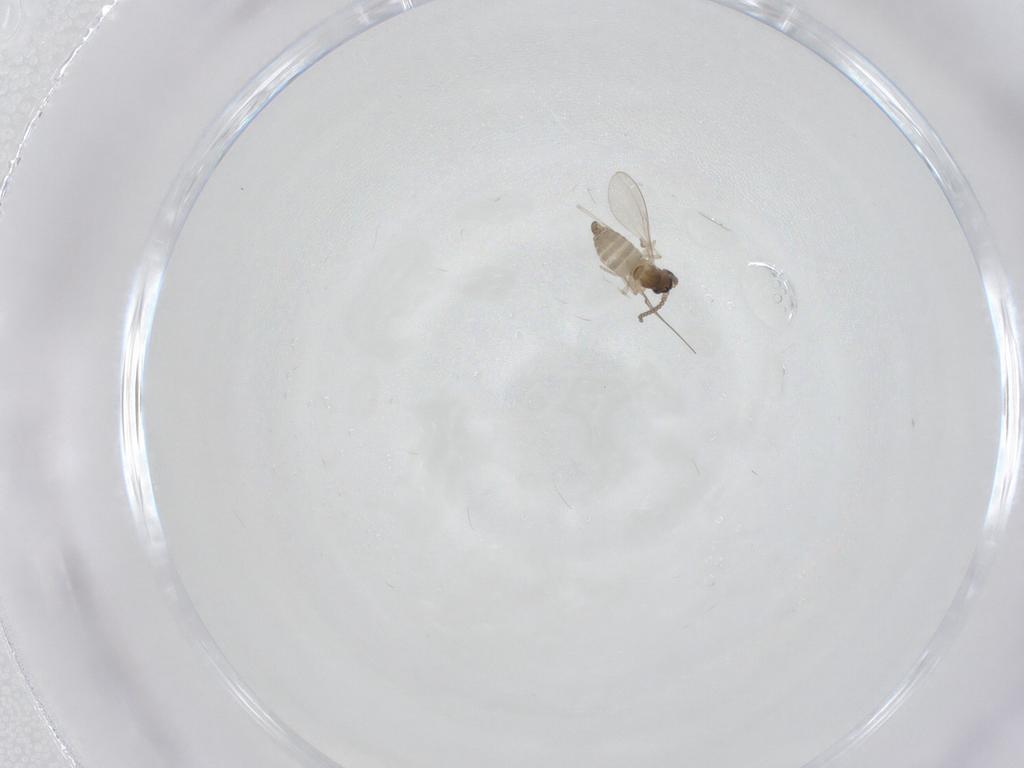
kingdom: Animalia
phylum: Arthropoda
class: Insecta
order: Diptera
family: Cecidomyiidae
